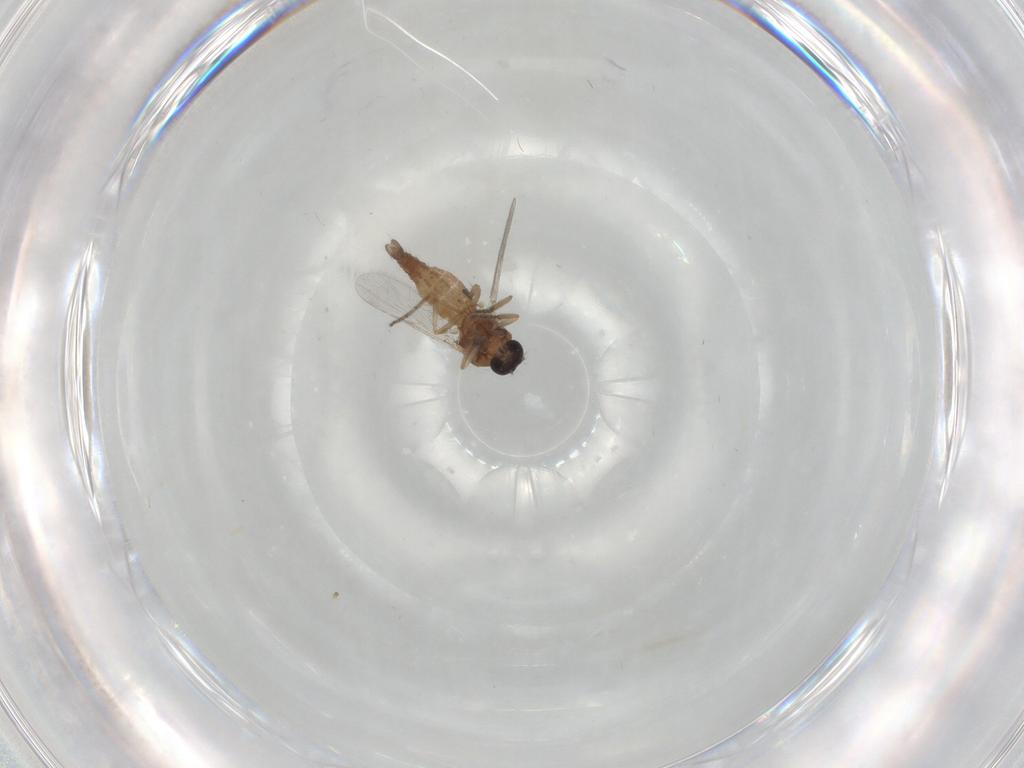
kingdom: Animalia
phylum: Arthropoda
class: Insecta
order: Diptera
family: Cecidomyiidae
